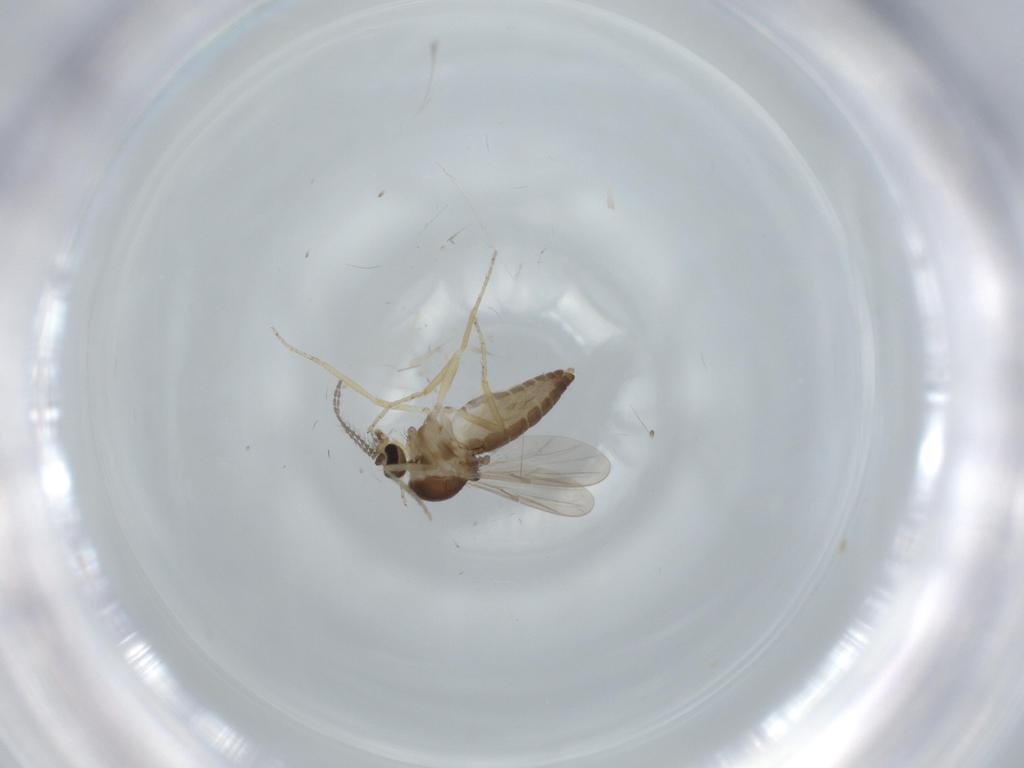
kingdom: Animalia
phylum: Arthropoda
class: Insecta
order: Diptera
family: Ceratopogonidae
